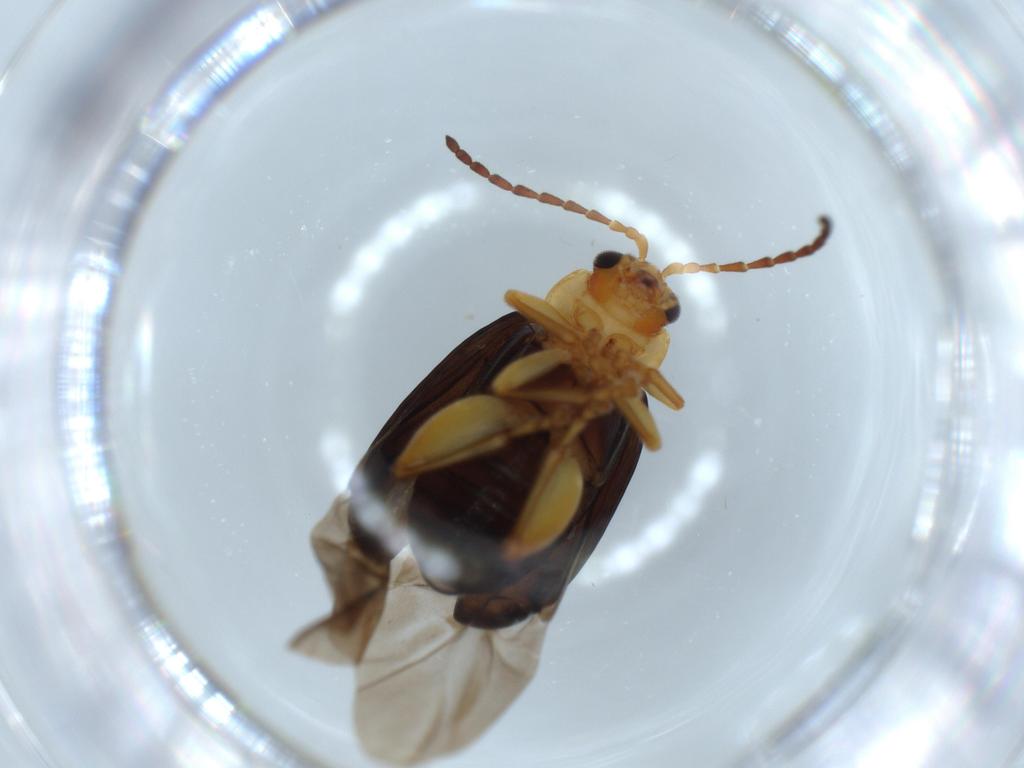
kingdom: Animalia
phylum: Arthropoda
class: Insecta
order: Coleoptera
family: Chrysomelidae
